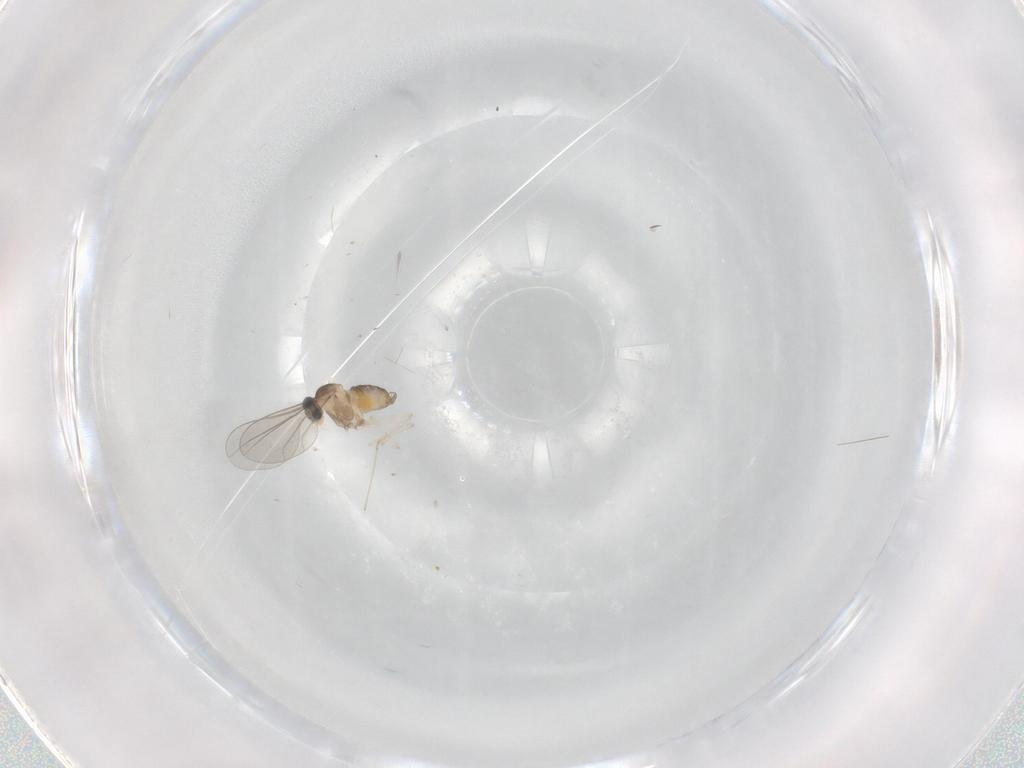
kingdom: Animalia
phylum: Arthropoda
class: Insecta
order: Diptera
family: Cecidomyiidae
